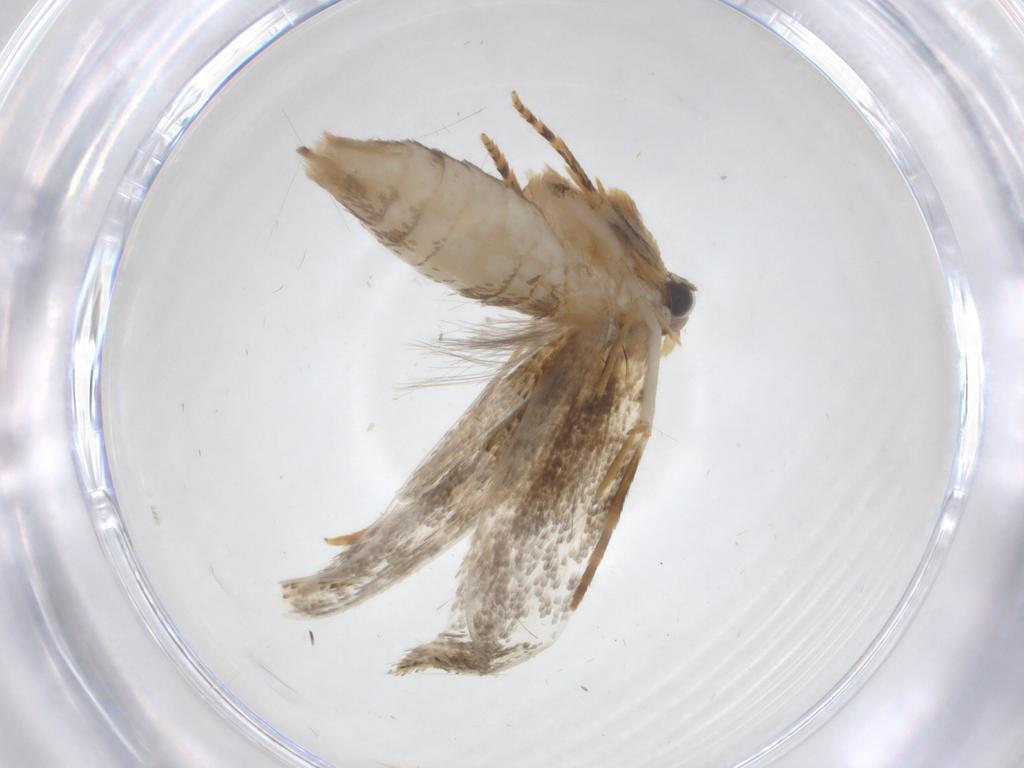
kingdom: Animalia
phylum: Arthropoda
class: Insecta
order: Lepidoptera
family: Tineidae
